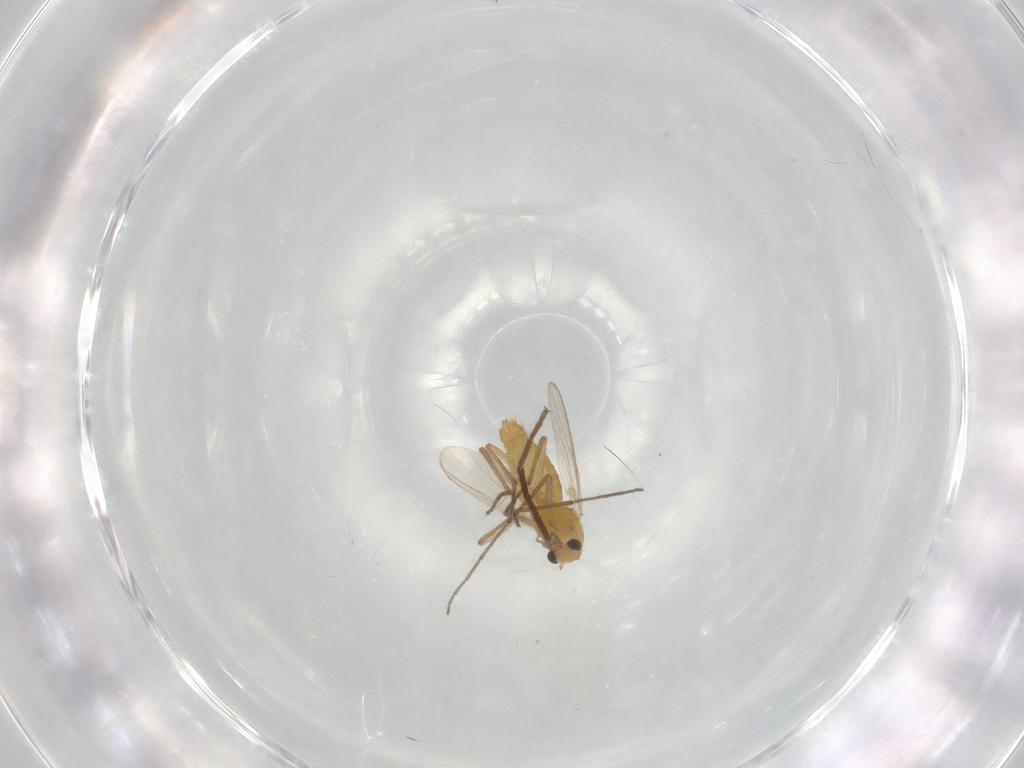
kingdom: Animalia
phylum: Arthropoda
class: Insecta
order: Diptera
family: Chironomidae
